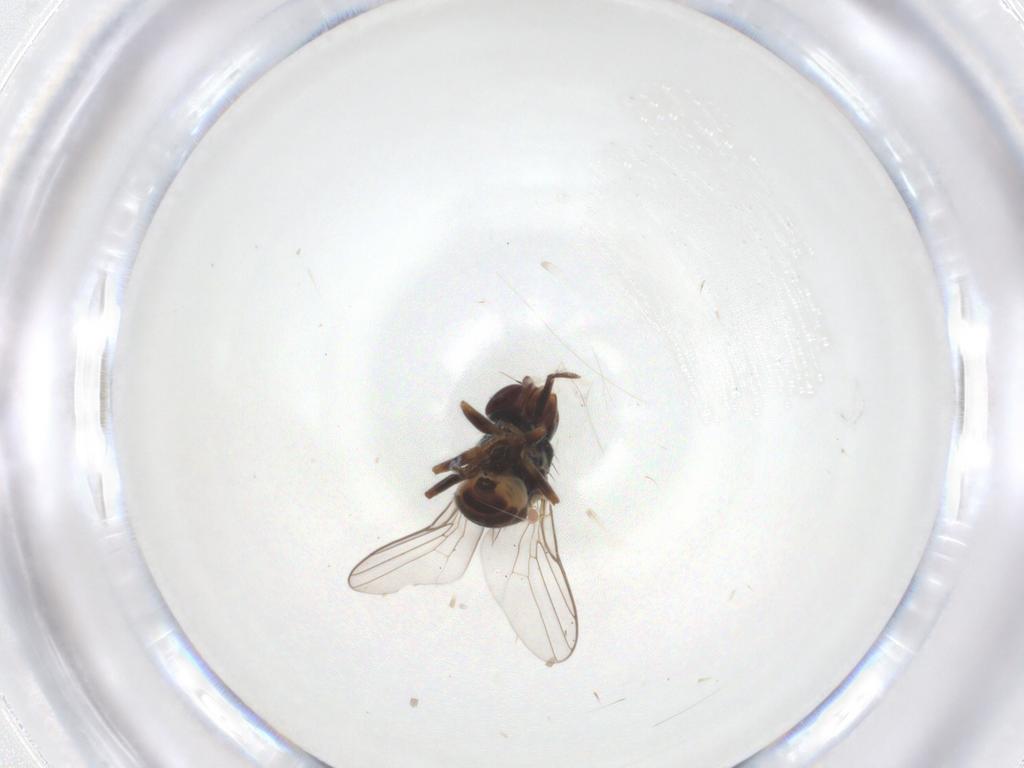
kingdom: Animalia
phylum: Arthropoda
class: Insecta
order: Diptera
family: Chloropidae
